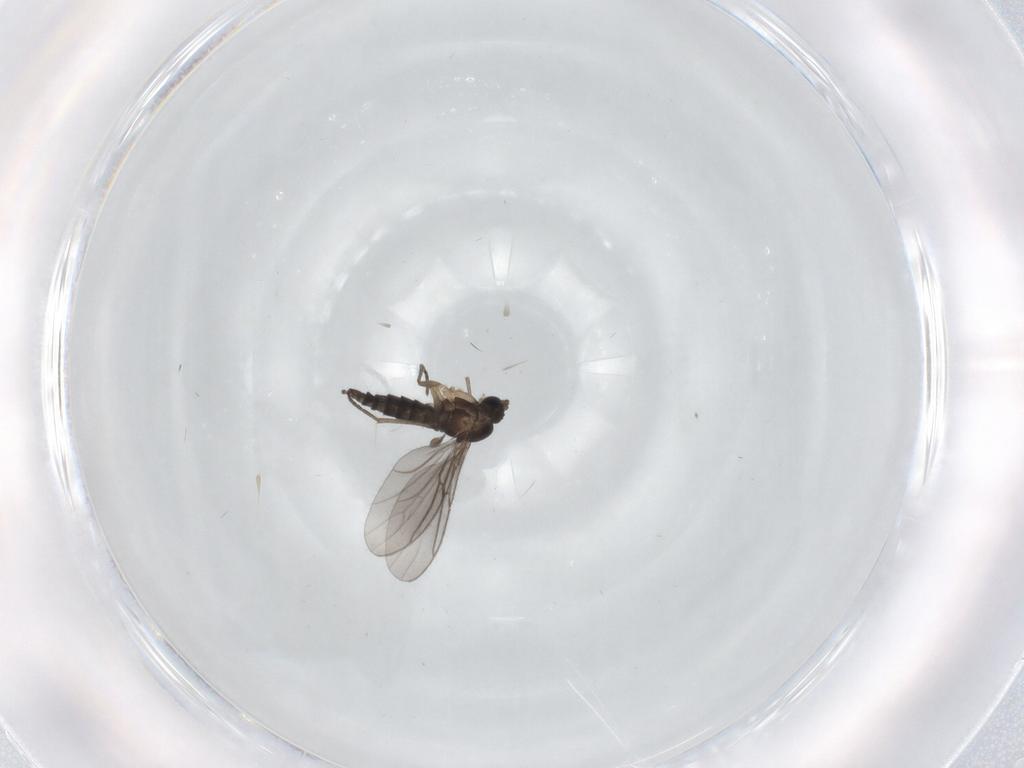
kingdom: Animalia
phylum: Arthropoda
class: Insecta
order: Diptera
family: Sciaridae
